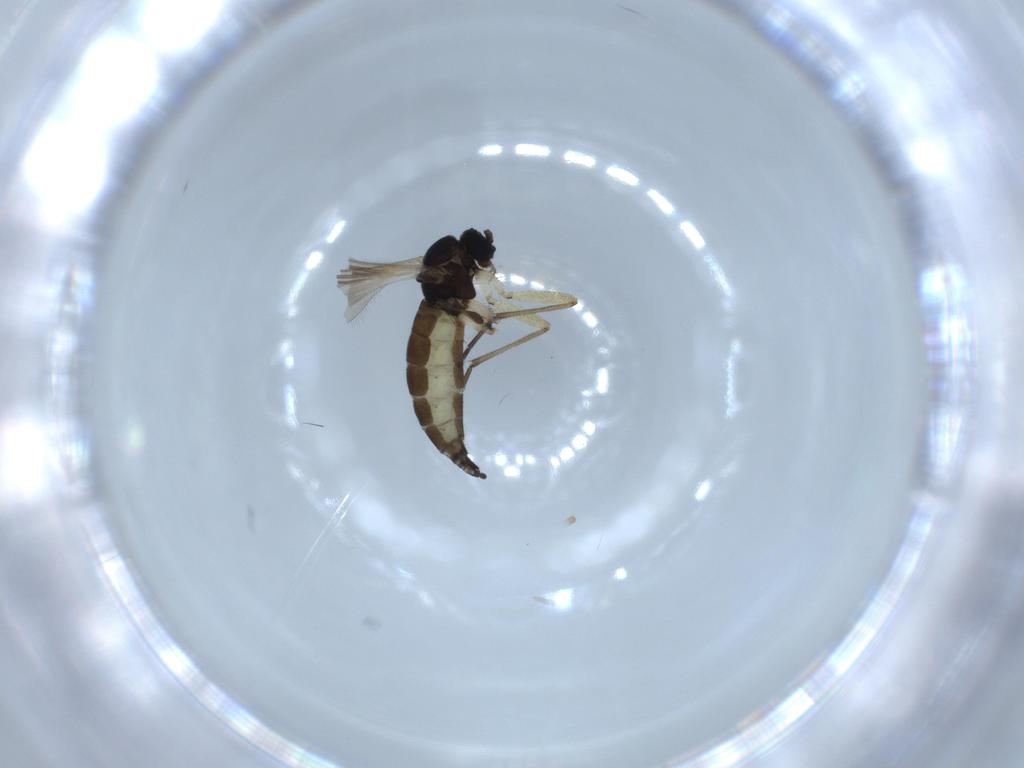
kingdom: Animalia
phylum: Arthropoda
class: Insecta
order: Diptera
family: Sciaridae
